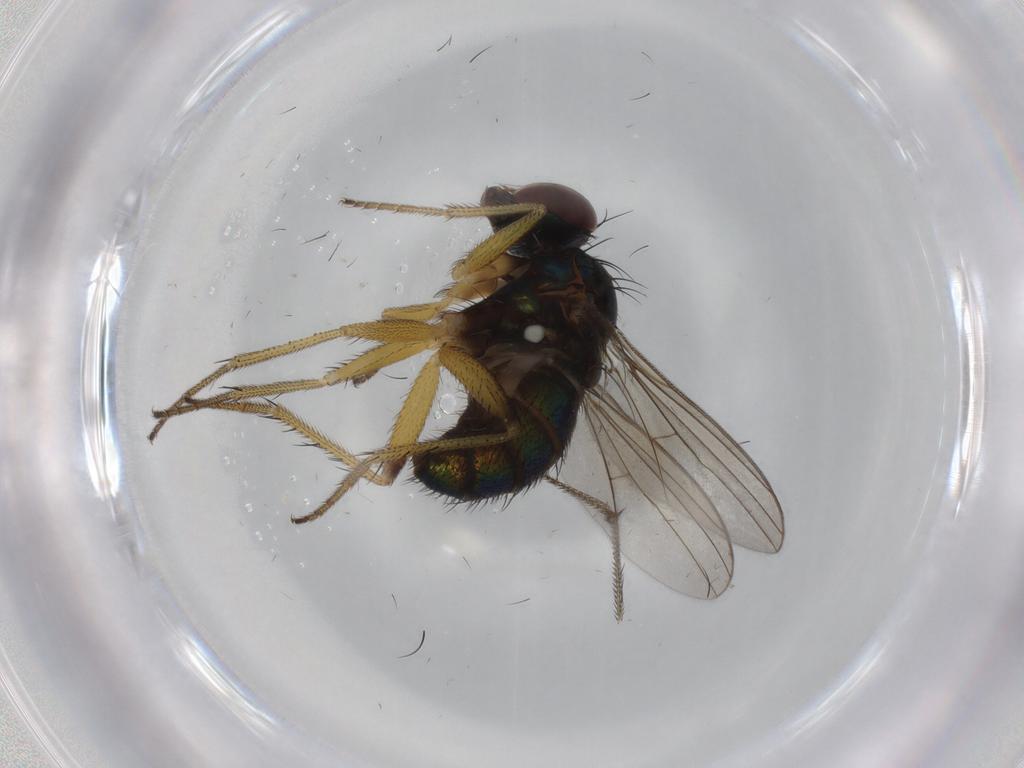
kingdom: Animalia
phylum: Arthropoda
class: Insecta
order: Diptera
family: Dolichopodidae
